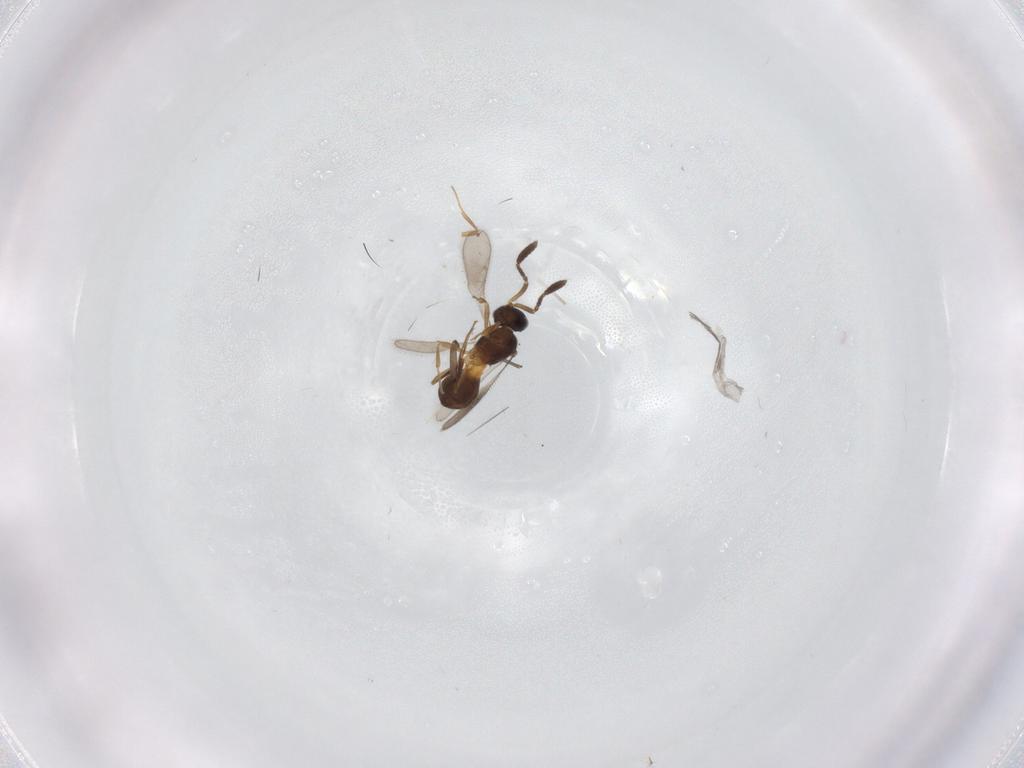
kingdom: Animalia
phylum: Arthropoda
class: Insecta
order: Hymenoptera
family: Scelionidae
